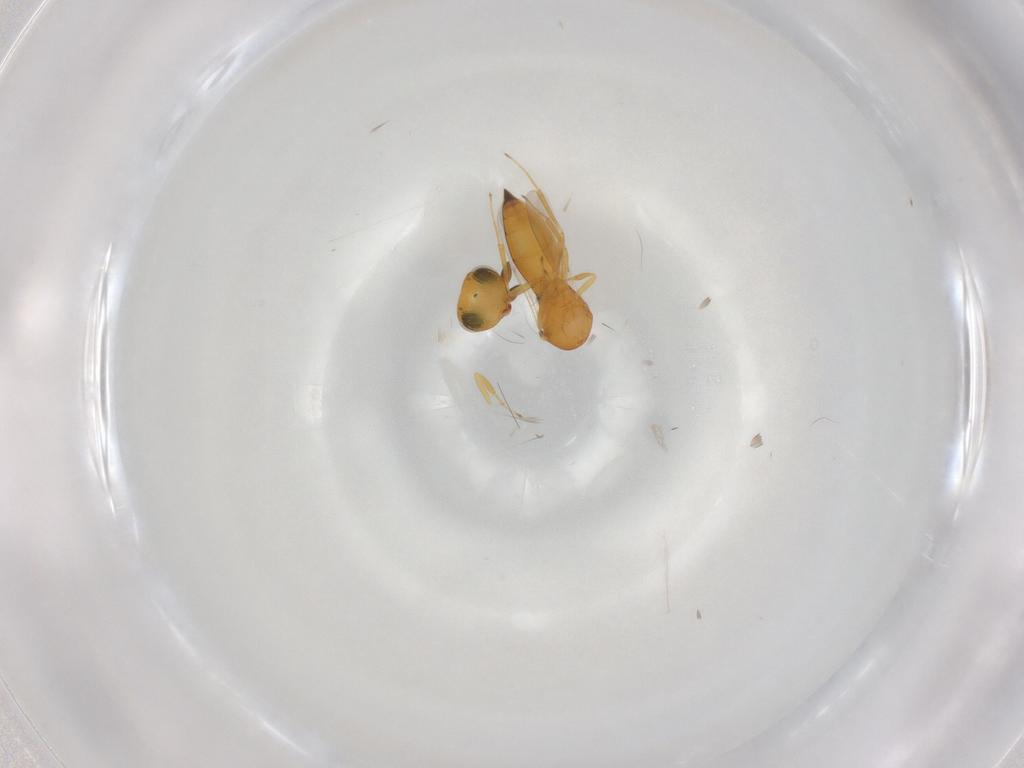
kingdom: Animalia
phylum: Arthropoda
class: Insecta
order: Hymenoptera
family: Scelionidae
